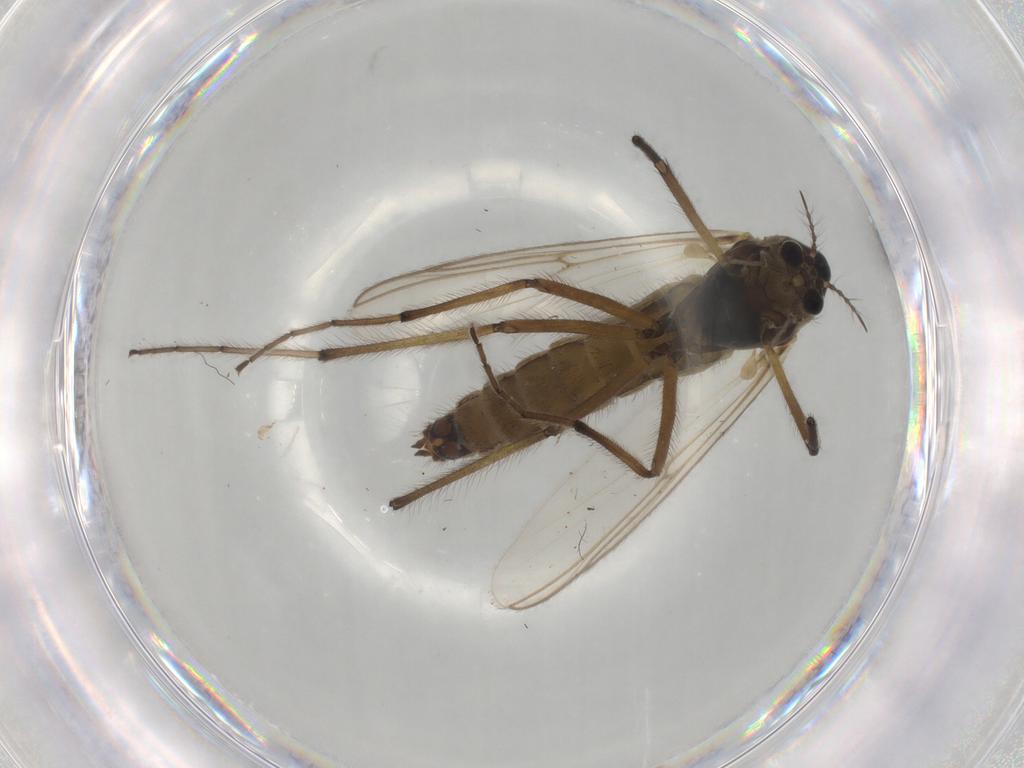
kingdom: Animalia
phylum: Arthropoda
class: Insecta
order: Diptera
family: Chironomidae
